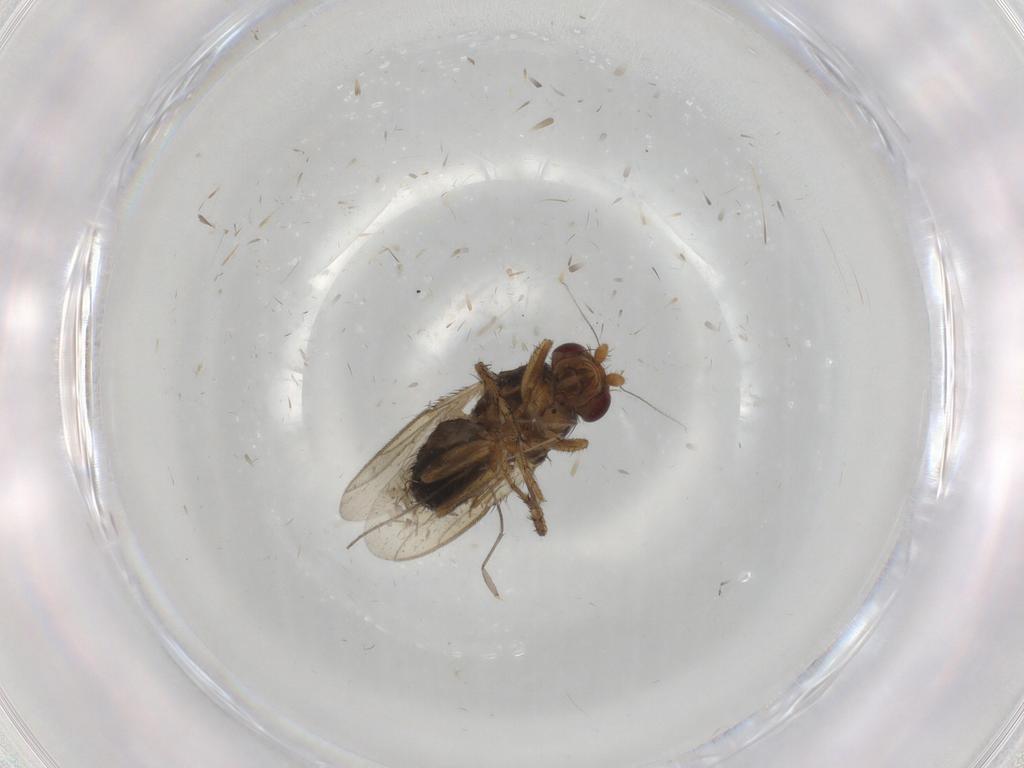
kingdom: Animalia
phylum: Arthropoda
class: Insecta
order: Diptera
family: Sphaeroceridae
